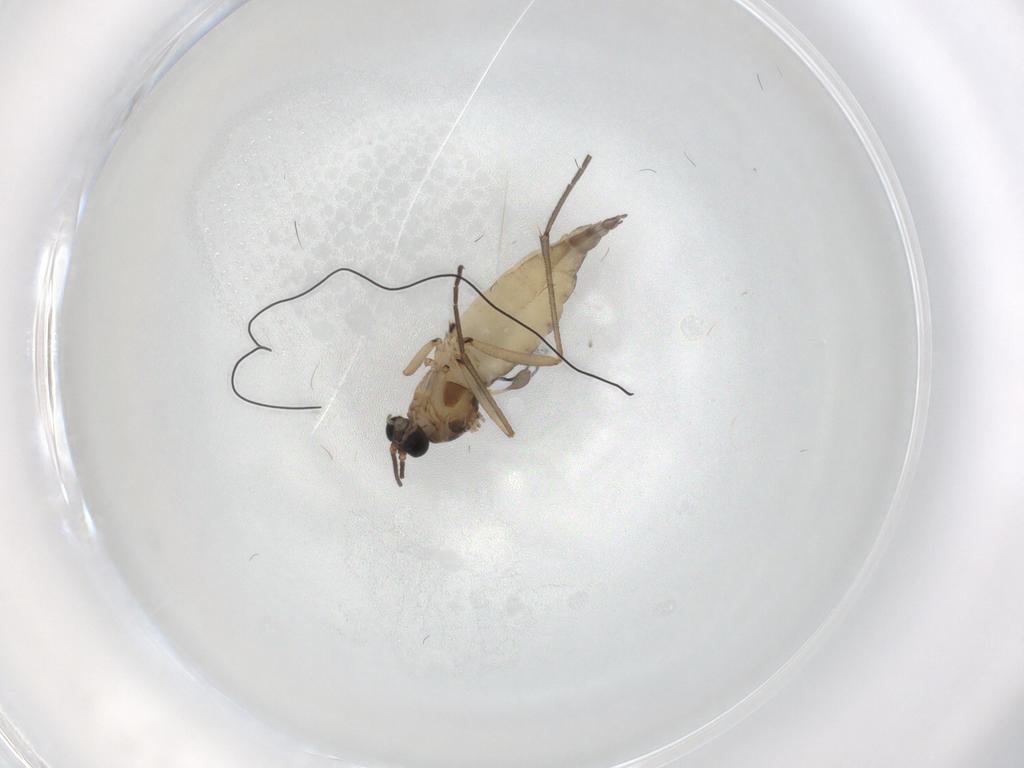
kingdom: Animalia
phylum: Arthropoda
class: Insecta
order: Diptera
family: Sciaridae
